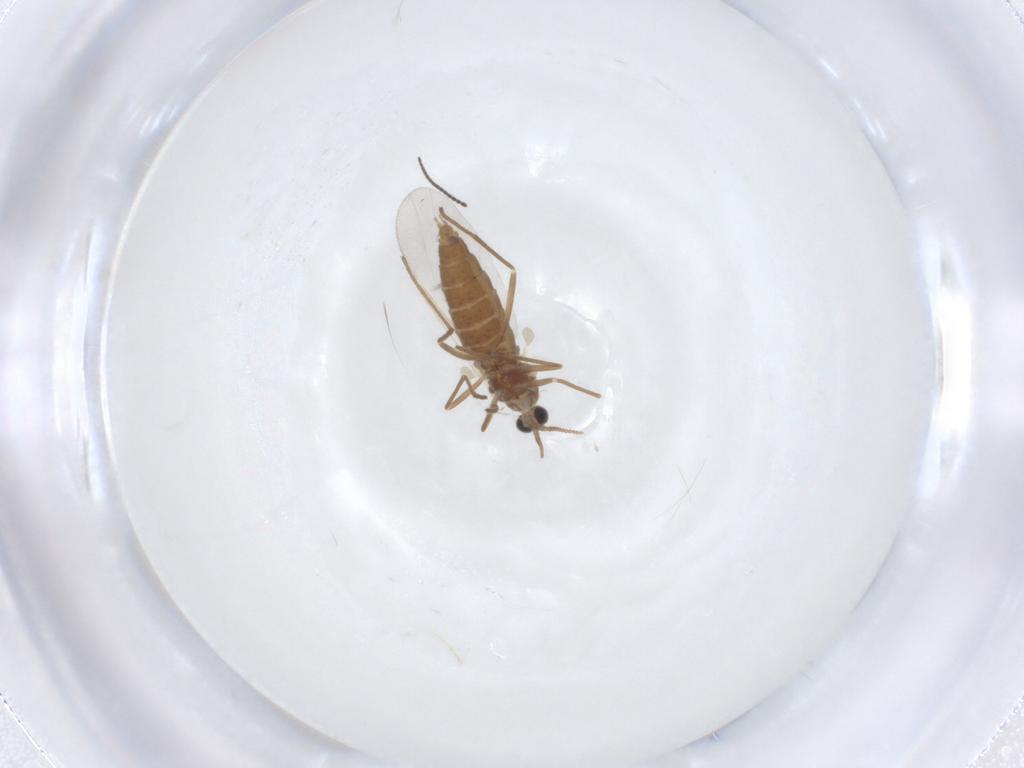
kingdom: Animalia
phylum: Arthropoda
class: Insecta
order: Diptera
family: Cecidomyiidae
